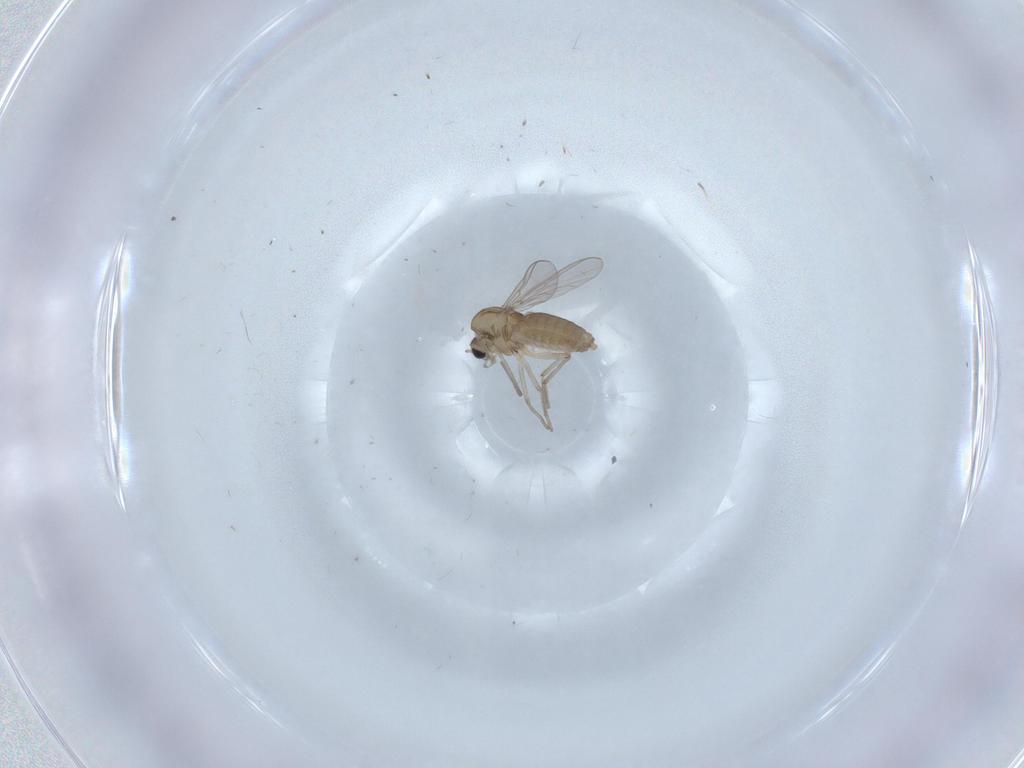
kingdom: Animalia
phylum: Arthropoda
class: Insecta
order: Diptera
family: Chironomidae
